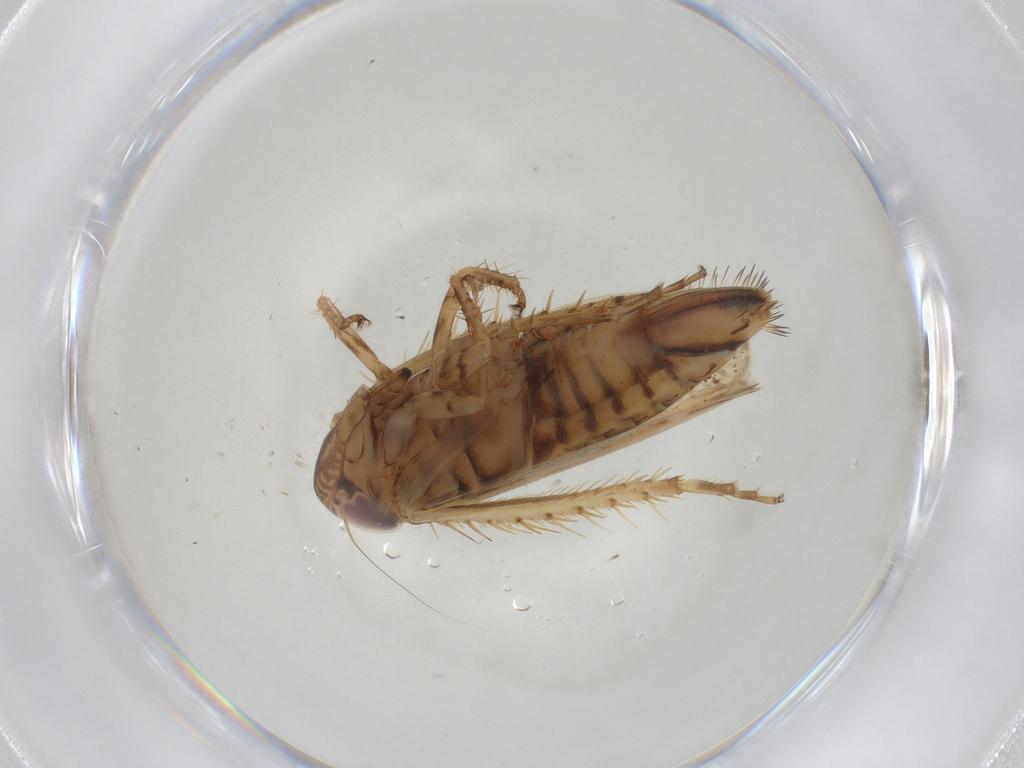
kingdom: Animalia
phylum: Arthropoda
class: Insecta
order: Hemiptera
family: Cicadellidae
